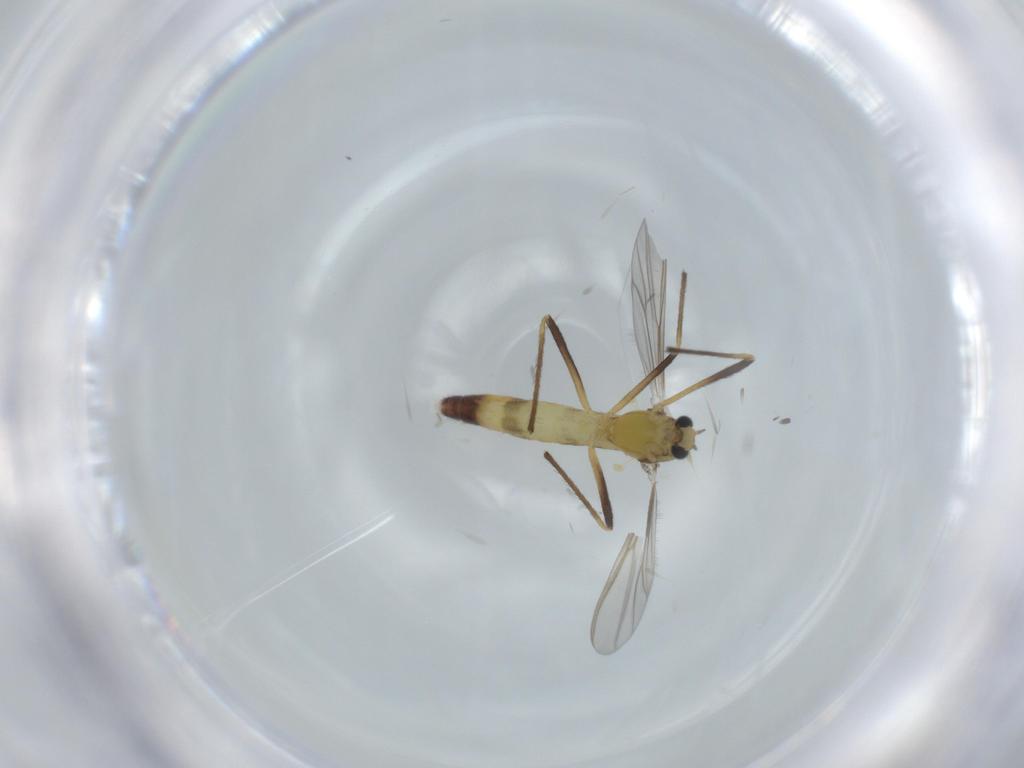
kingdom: Animalia
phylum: Arthropoda
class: Insecta
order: Diptera
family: Chironomidae
